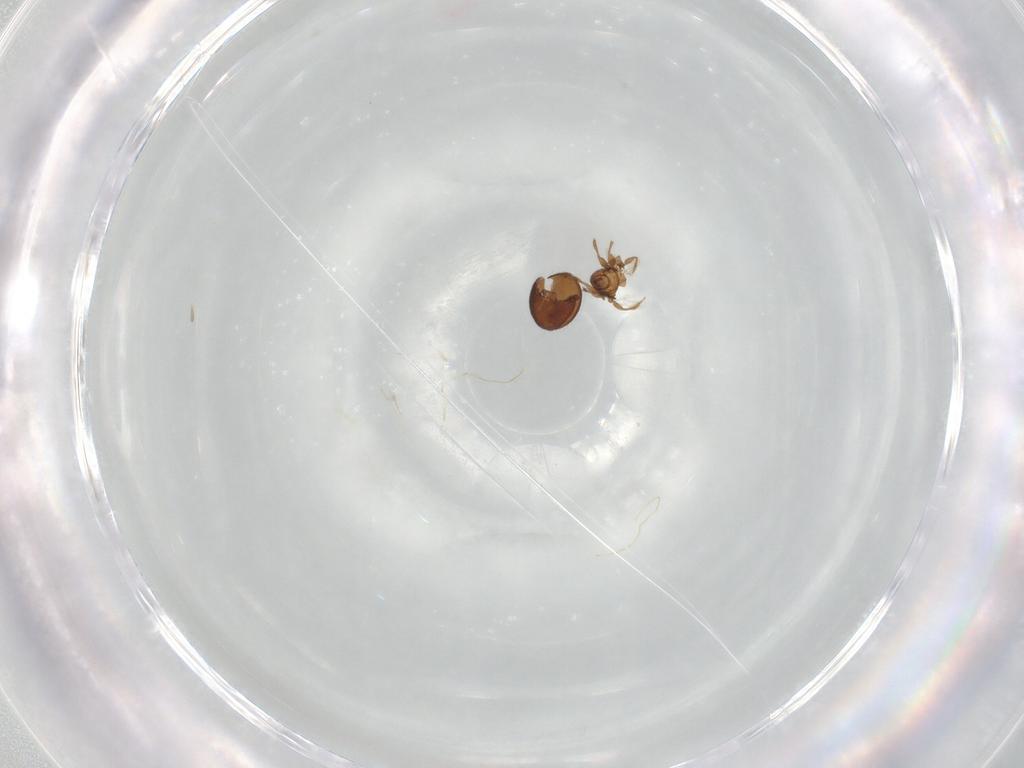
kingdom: Animalia
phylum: Arthropoda
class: Arachnida
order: Sarcoptiformes
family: Oribatulidae
